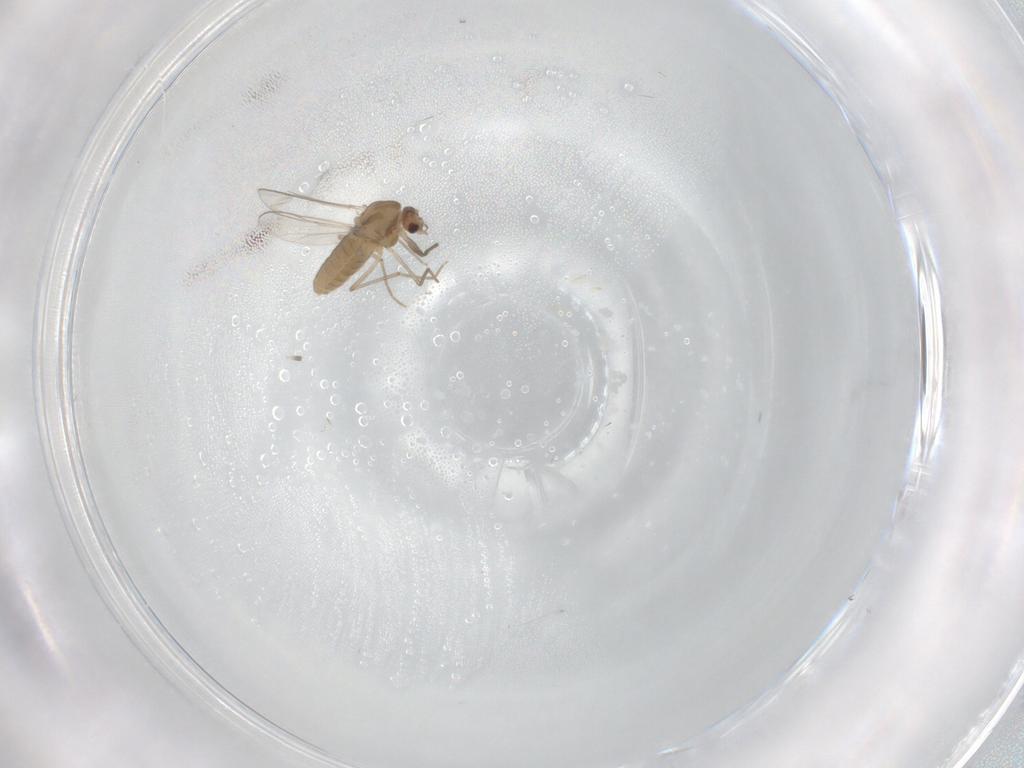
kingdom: Animalia
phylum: Arthropoda
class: Insecta
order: Diptera
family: Chironomidae
